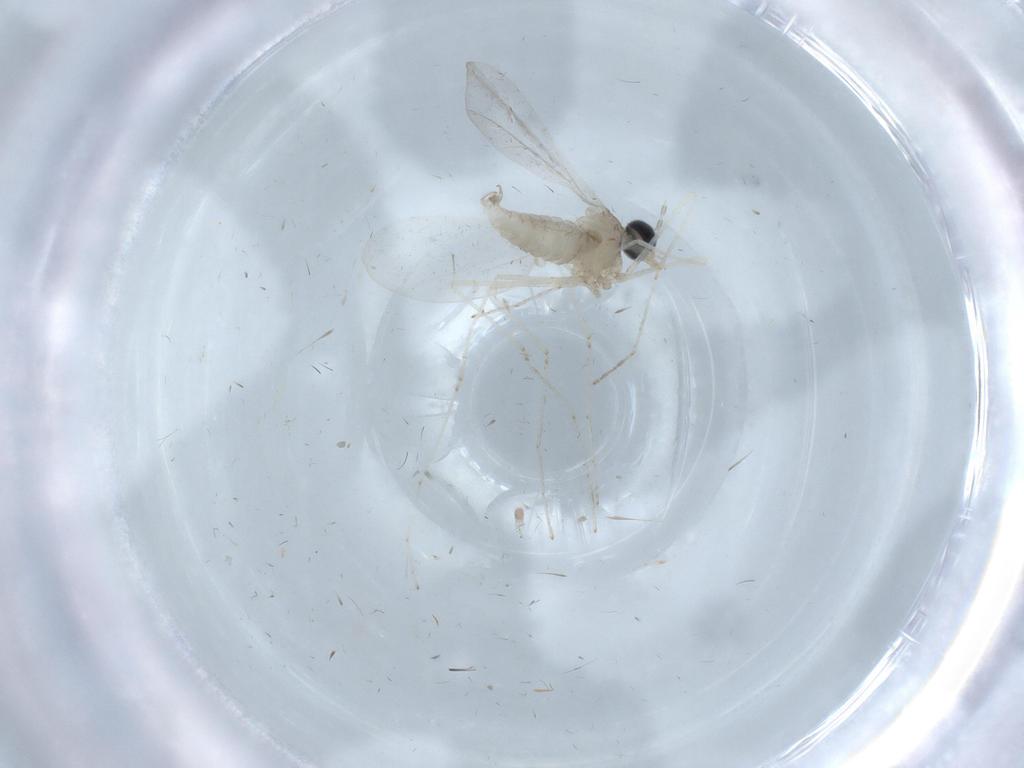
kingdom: Animalia
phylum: Arthropoda
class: Insecta
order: Diptera
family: Cecidomyiidae
